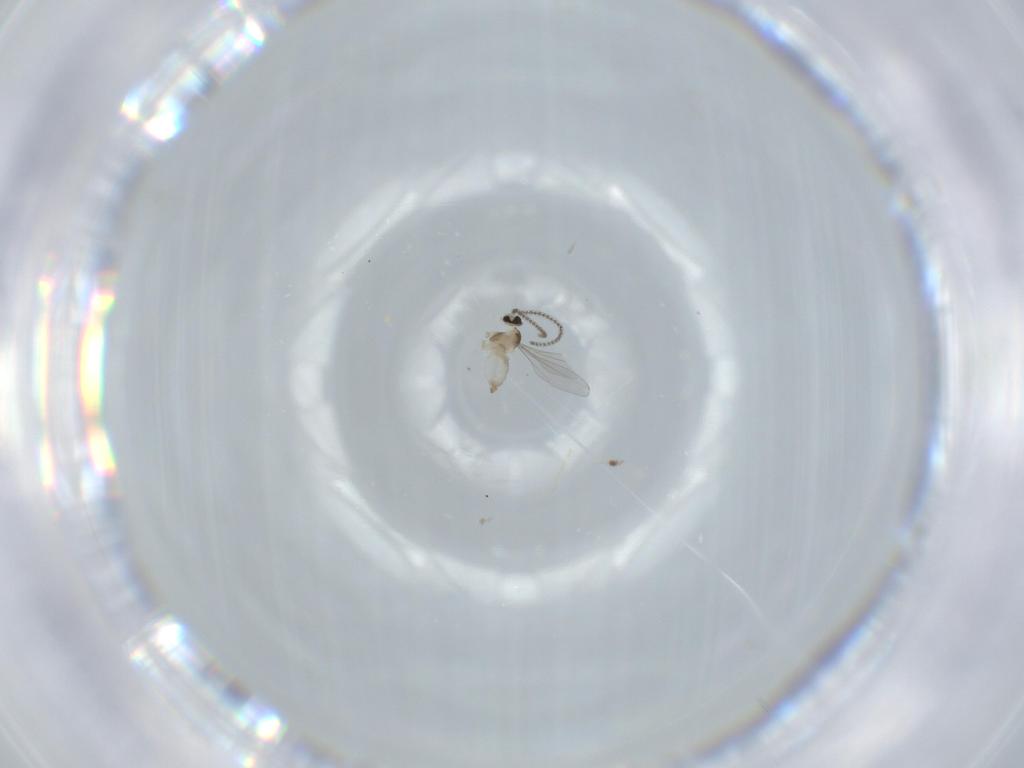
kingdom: Animalia
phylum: Arthropoda
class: Insecta
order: Diptera
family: Cecidomyiidae
